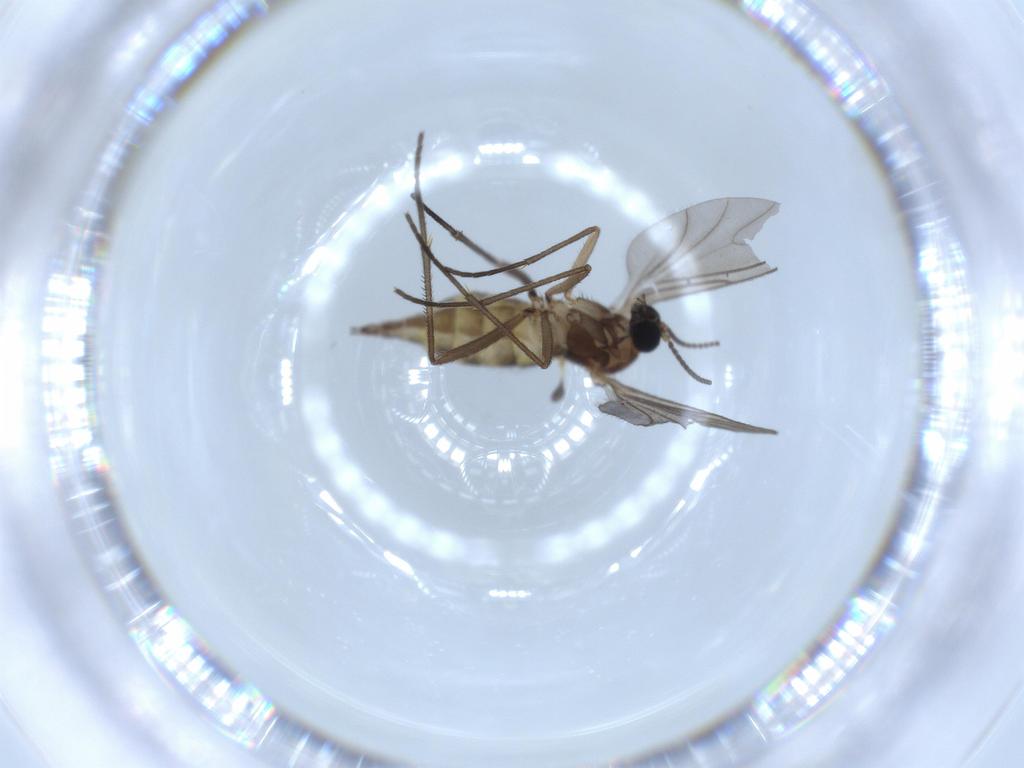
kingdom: Animalia
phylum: Arthropoda
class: Insecta
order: Diptera
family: Sciaridae
